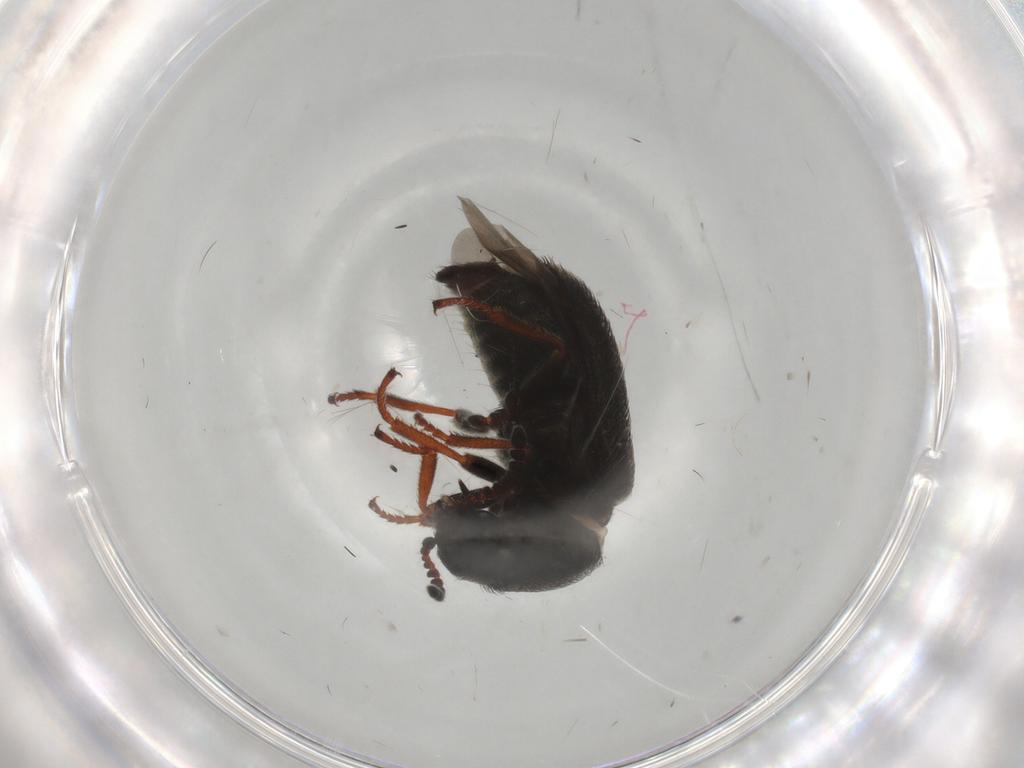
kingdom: Animalia
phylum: Arthropoda
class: Insecta
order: Coleoptera
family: Melyridae
